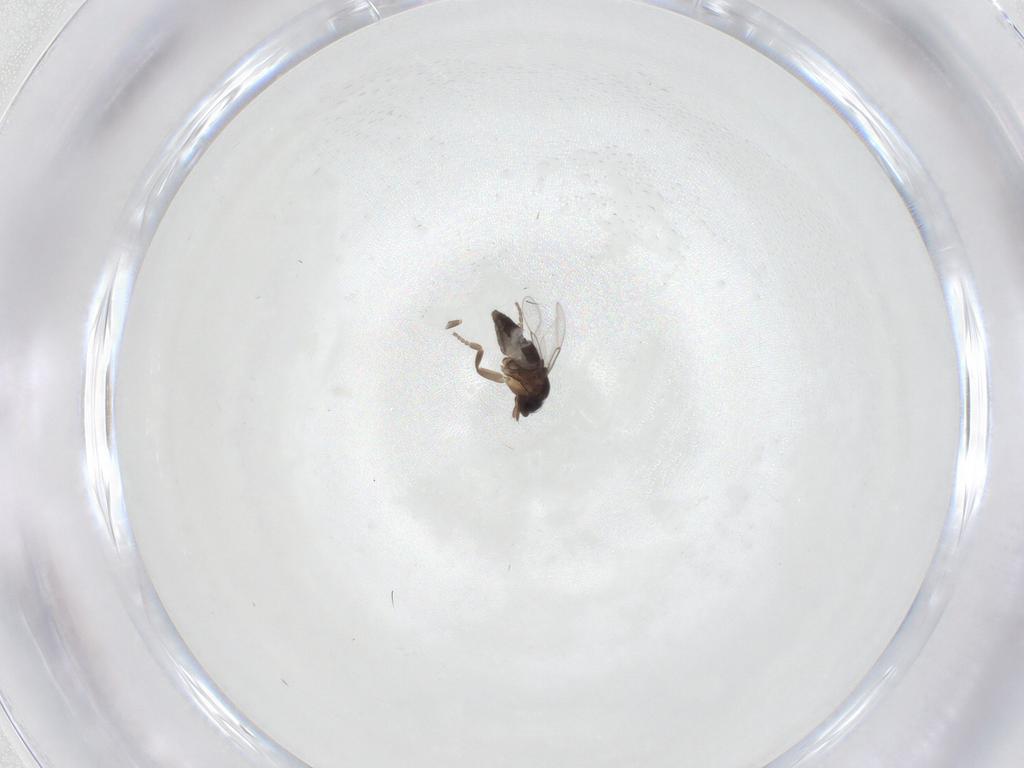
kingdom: Animalia
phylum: Arthropoda
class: Insecta
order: Diptera
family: Phoridae
